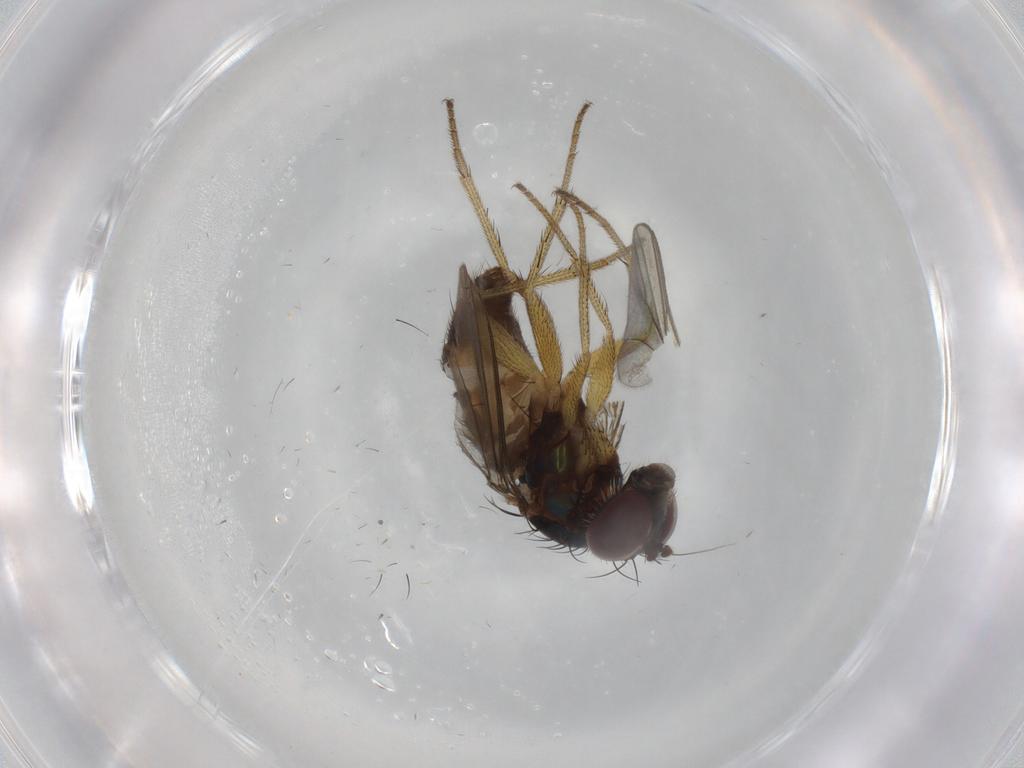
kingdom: Animalia
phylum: Arthropoda
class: Insecta
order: Diptera
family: Dolichopodidae
